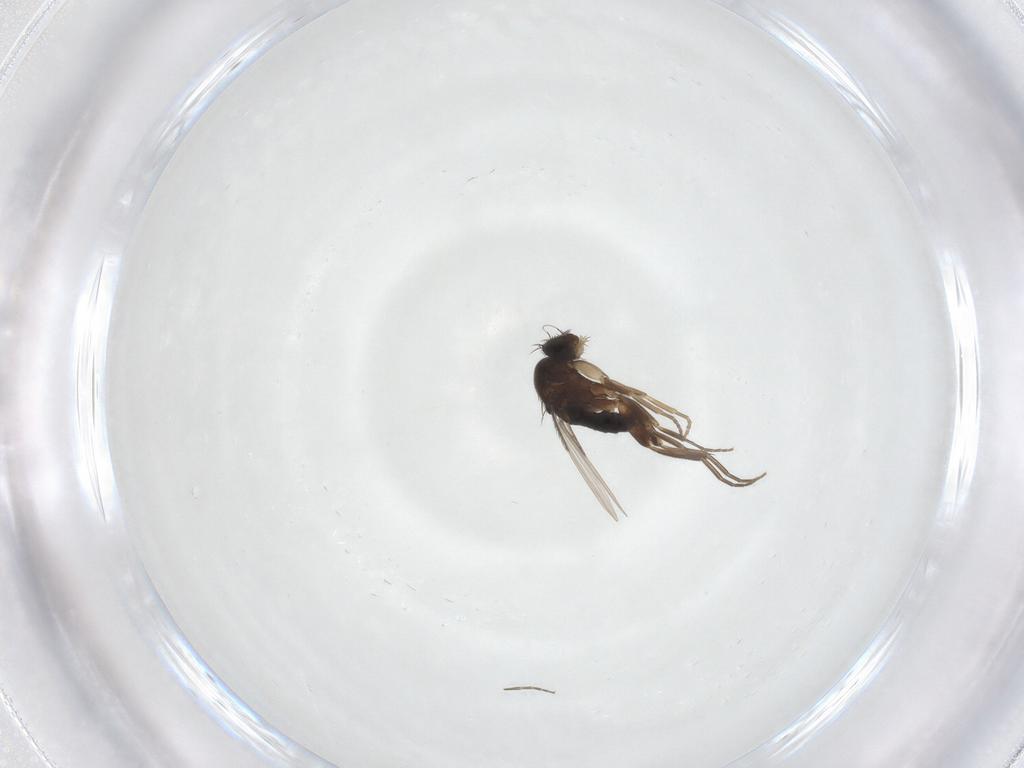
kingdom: Animalia
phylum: Arthropoda
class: Insecta
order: Diptera
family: Phoridae
